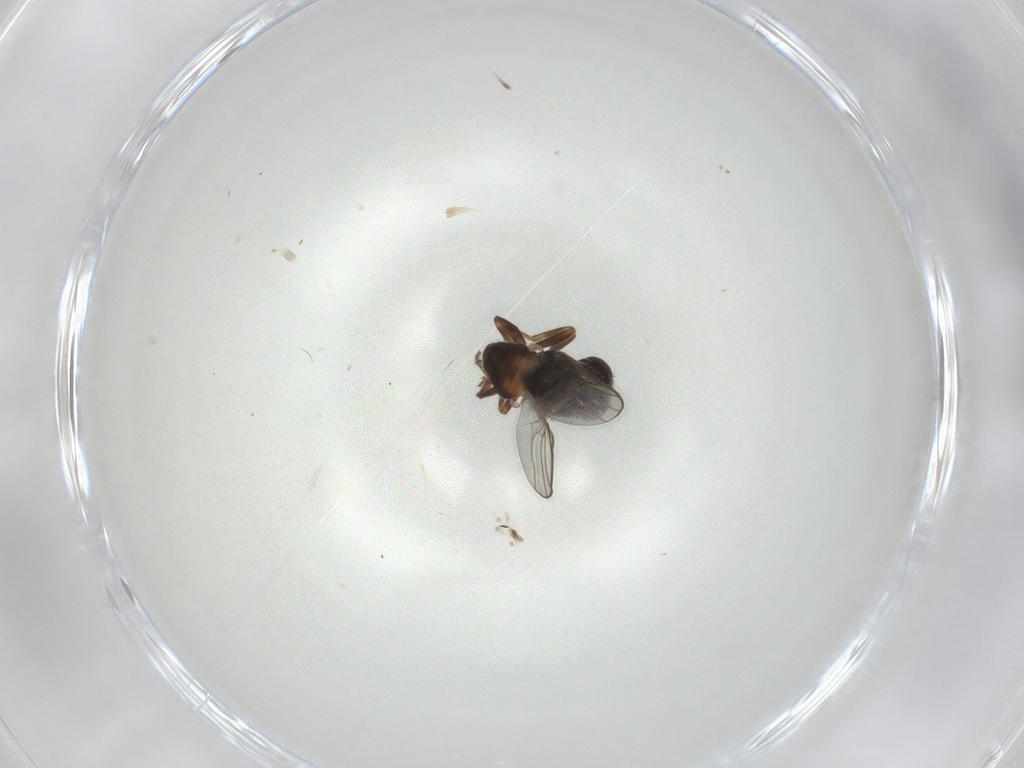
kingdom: Animalia
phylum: Arthropoda
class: Insecta
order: Diptera
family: Chloropidae
